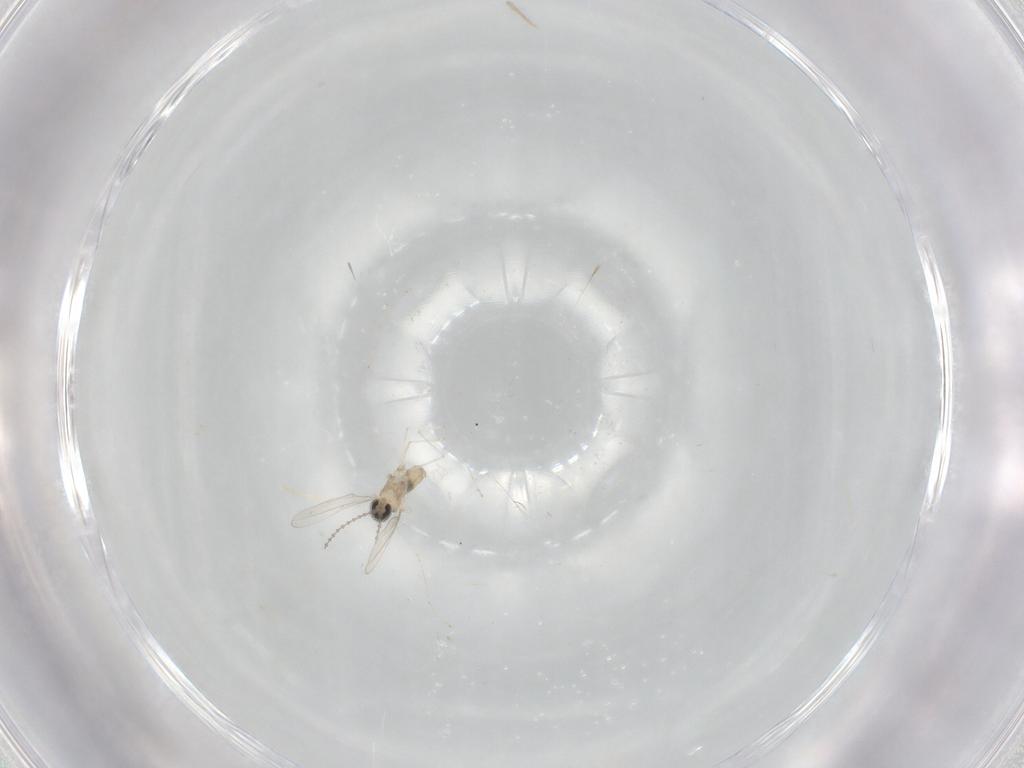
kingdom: Animalia
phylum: Arthropoda
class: Insecta
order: Diptera
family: Cecidomyiidae
